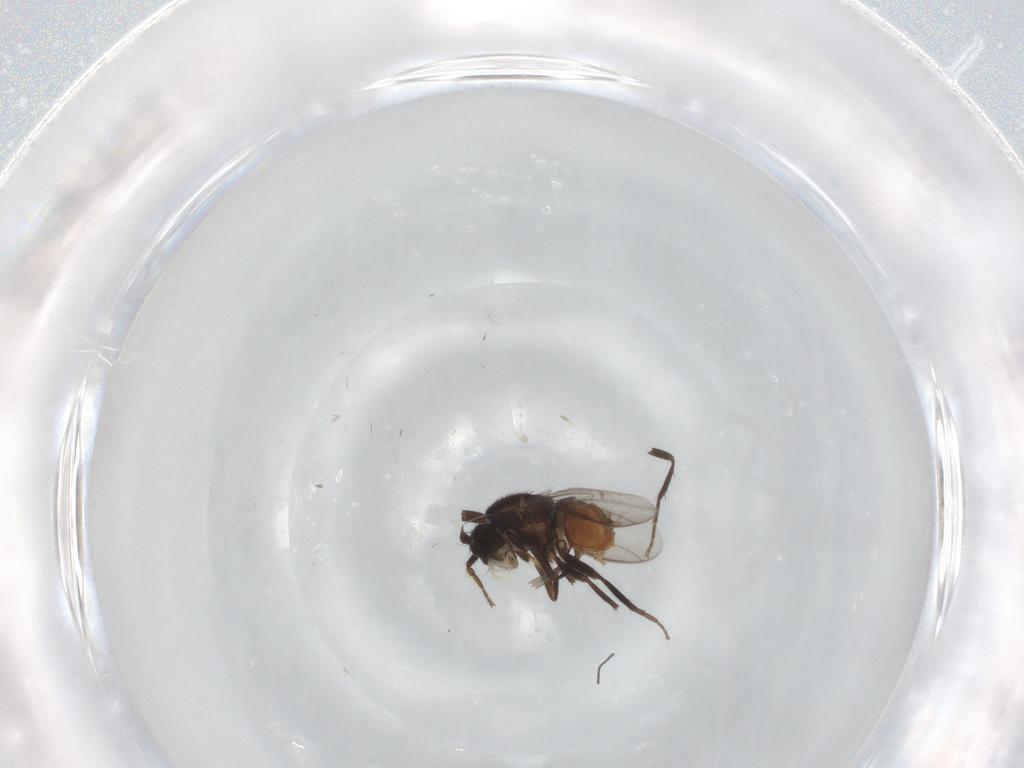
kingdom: Animalia
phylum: Arthropoda
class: Insecta
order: Diptera
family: Sphaeroceridae
